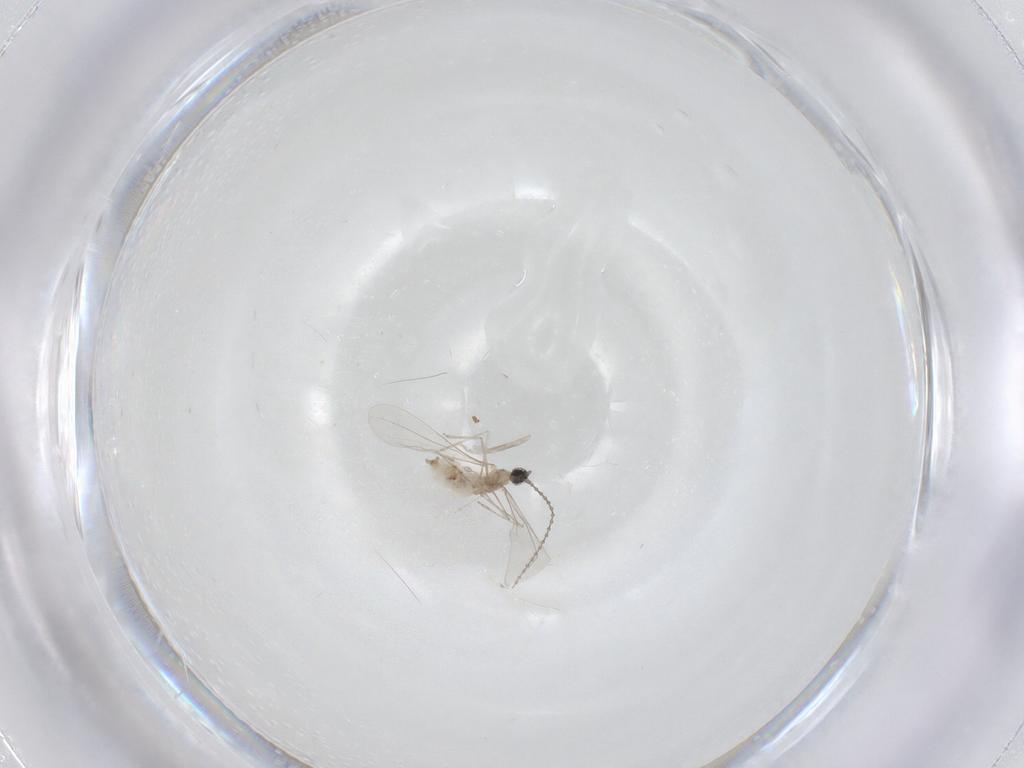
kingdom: Animalia
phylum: Arthropoda
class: Insecta
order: Diptera
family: Cecidomyiidae
